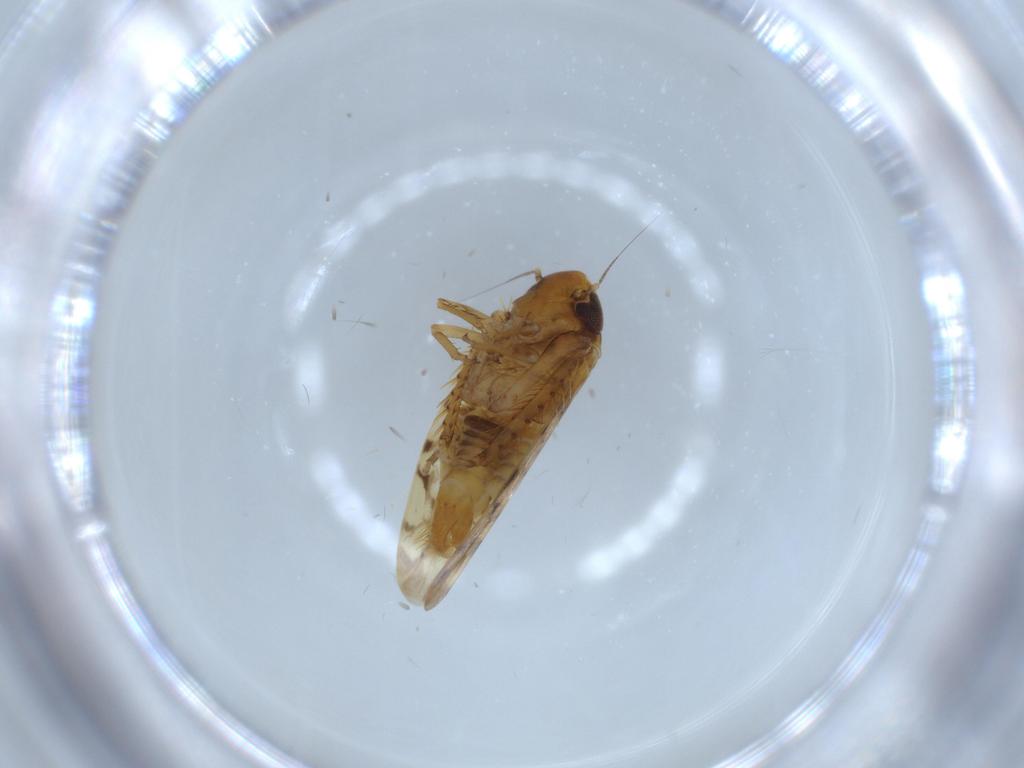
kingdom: Animalia
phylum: Arthropoda
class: Insecta
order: Hemiptera
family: Cicadellidae
